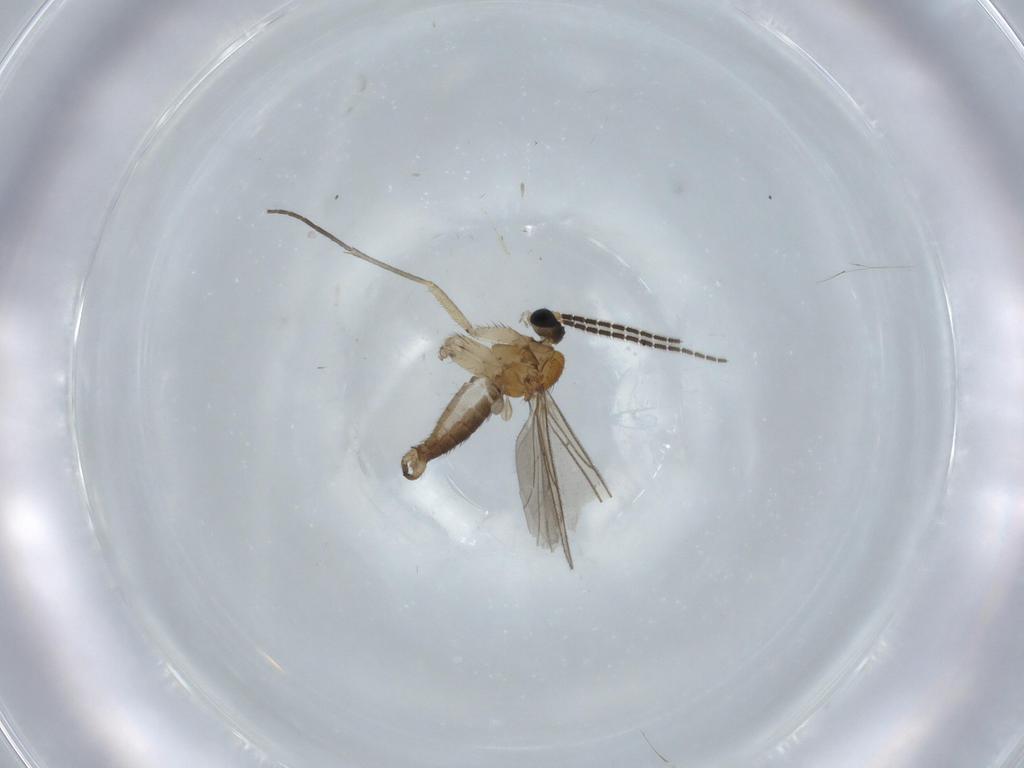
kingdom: Animalia
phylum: Arthropoda
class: Insecta
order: Diptera
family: Sciaridae
